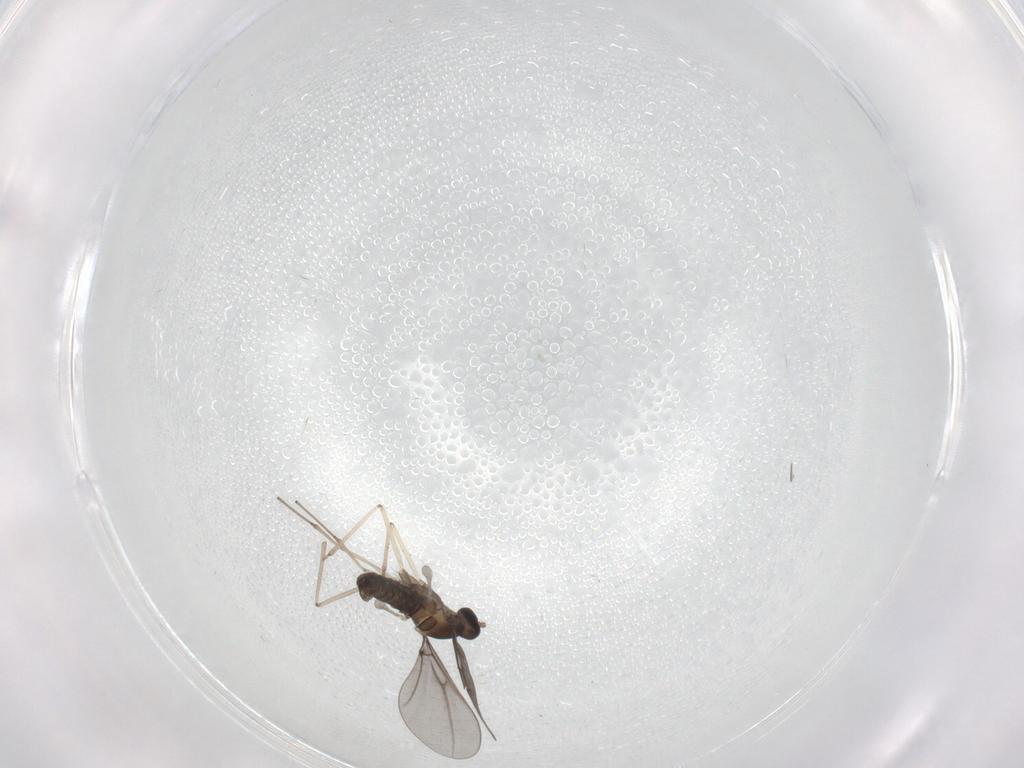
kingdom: Animalia
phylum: Arthropoda
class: Insecta
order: Diptera
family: Cecidomyiidae
